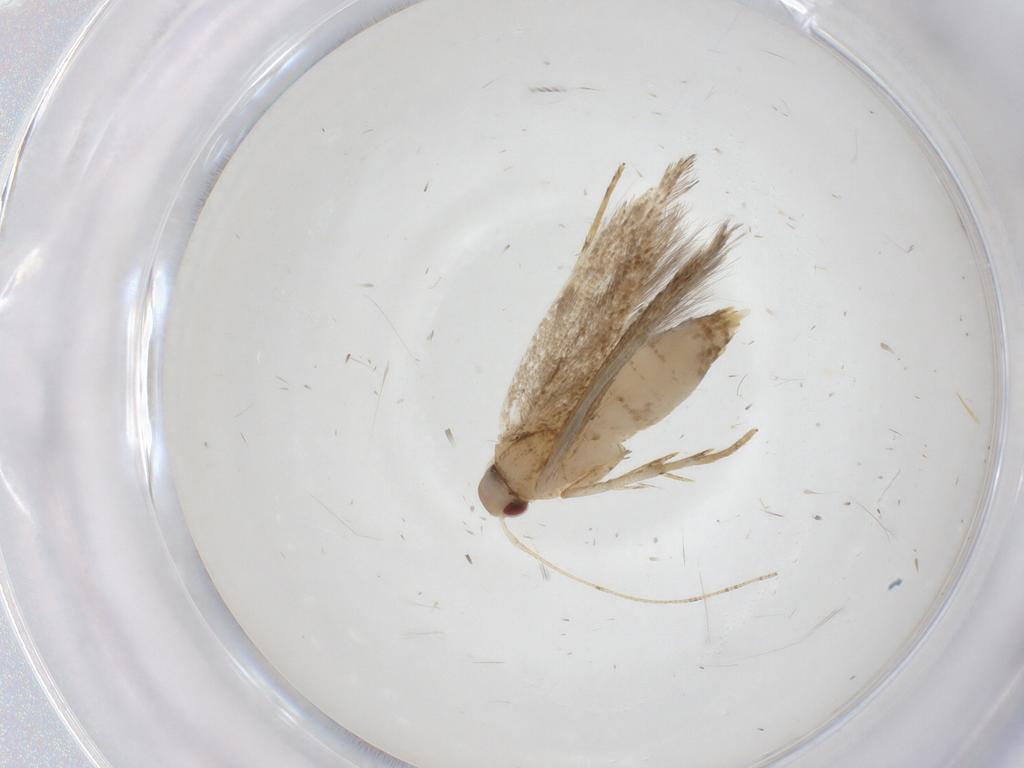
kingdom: Animalia
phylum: Arthropoda
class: Insecta
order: Lepidoptera
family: Cosmopterigidae
